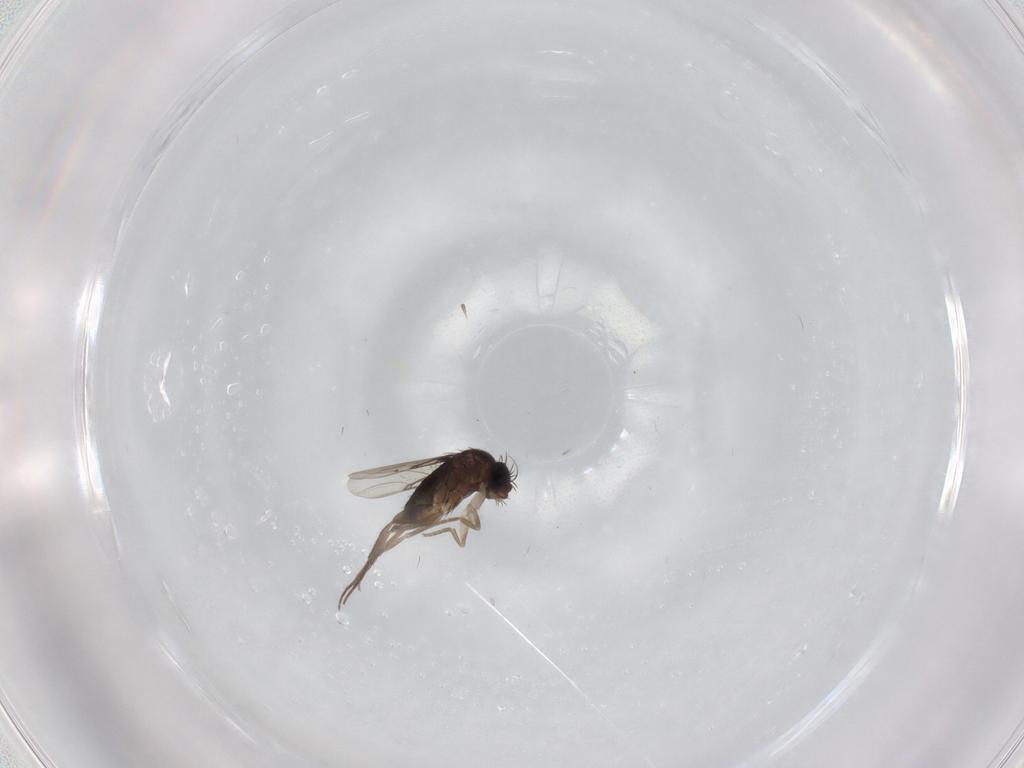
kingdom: Animalia
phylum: Arthropoda
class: Insecta
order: Diptera
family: Phoridae
